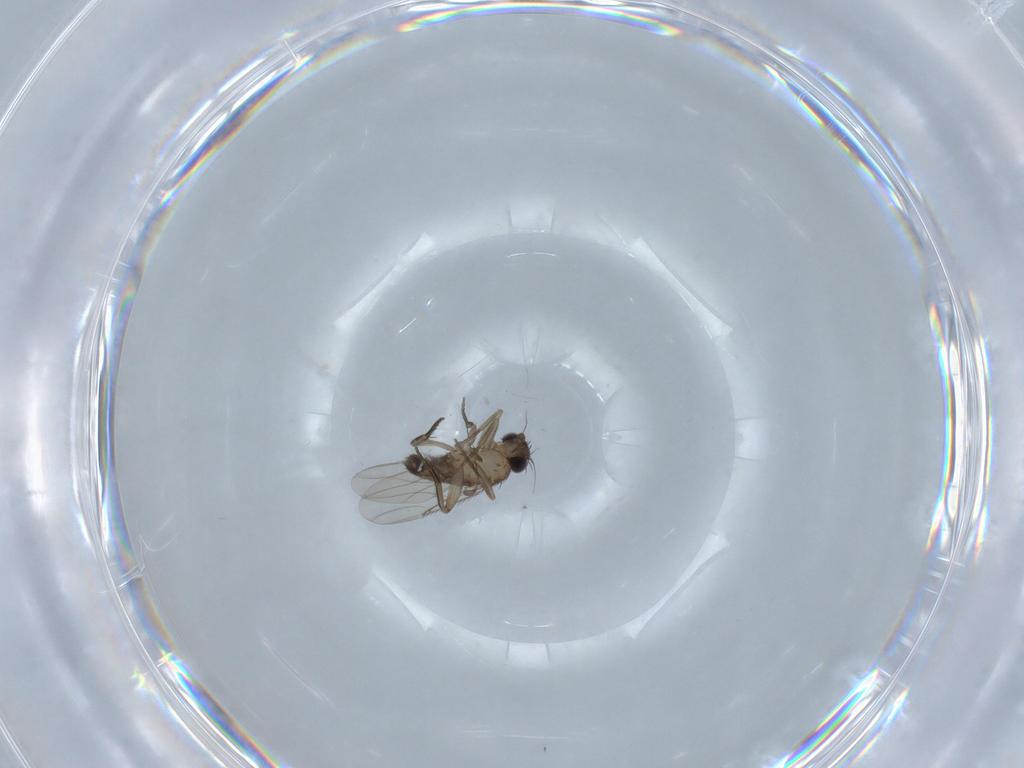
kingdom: Animalia
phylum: Arthropoda
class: Insecta
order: Diptera
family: Phoridae
